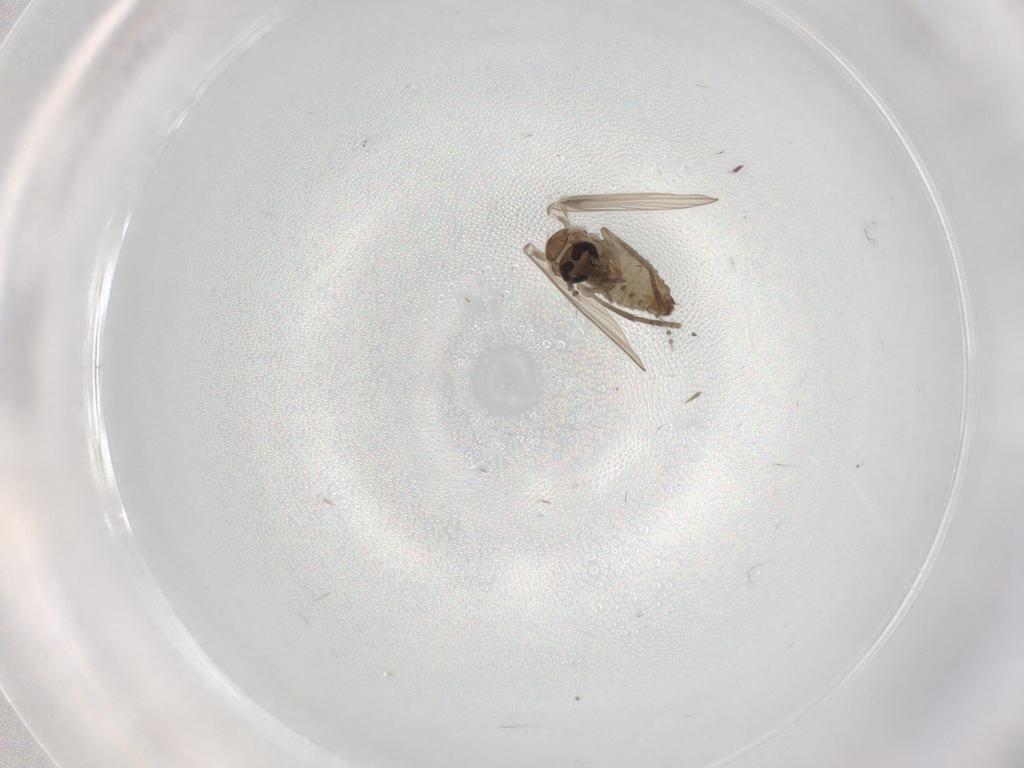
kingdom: Animalia
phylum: Arthropoda
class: Insecta
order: Diptera
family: Psychodidae
